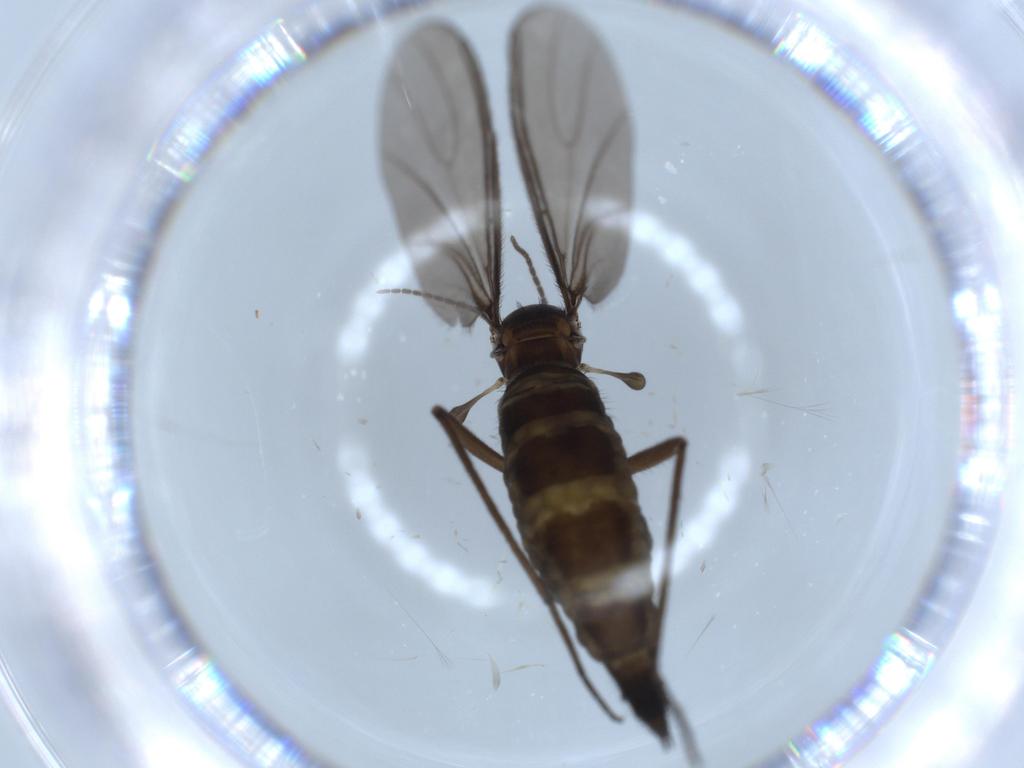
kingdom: Animalia
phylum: Arthropoda
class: Insecta
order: Diptera
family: Sciaridae
